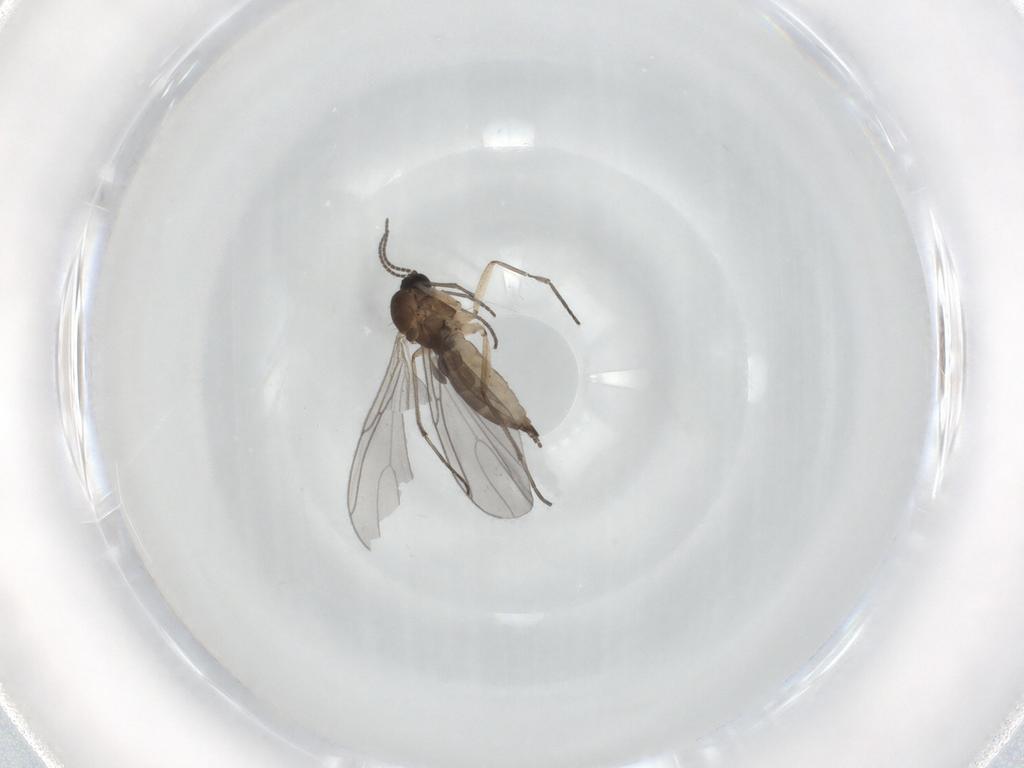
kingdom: Animalia
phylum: Arthropoda
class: Insecta
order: Diptera
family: Sciaridae
